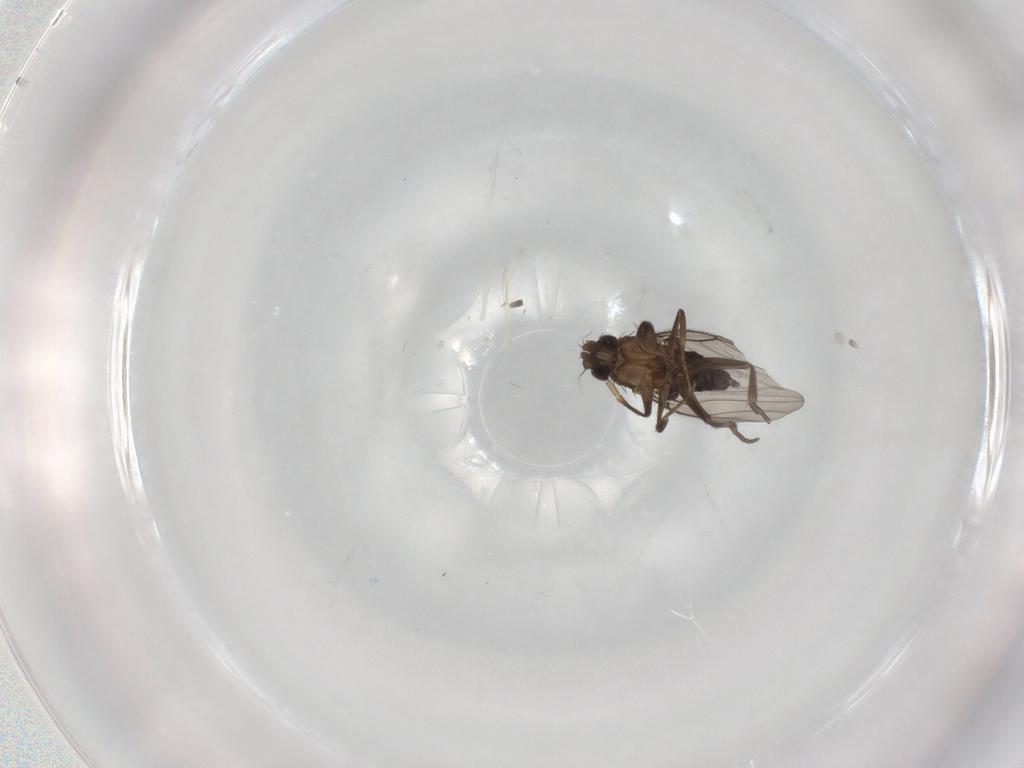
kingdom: Animalia
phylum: Arthropoda
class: Insecta
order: Diptera
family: Phoridae
